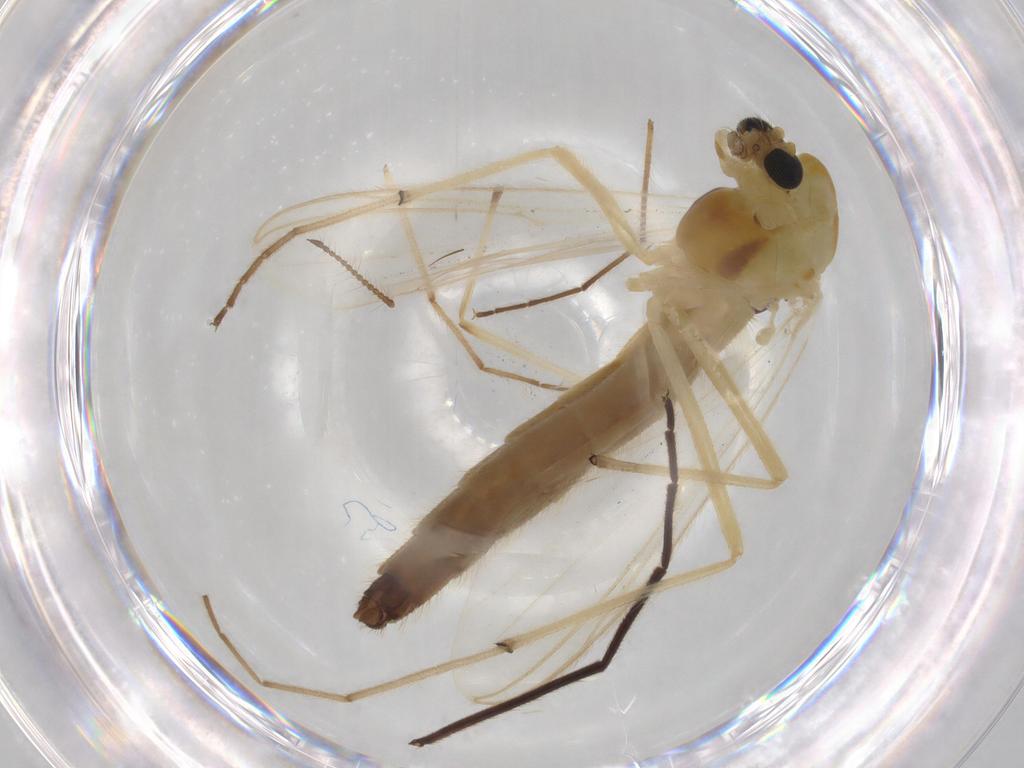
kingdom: Animalia
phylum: Arthropoda
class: Insecta
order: Diptera
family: Chironomidae
